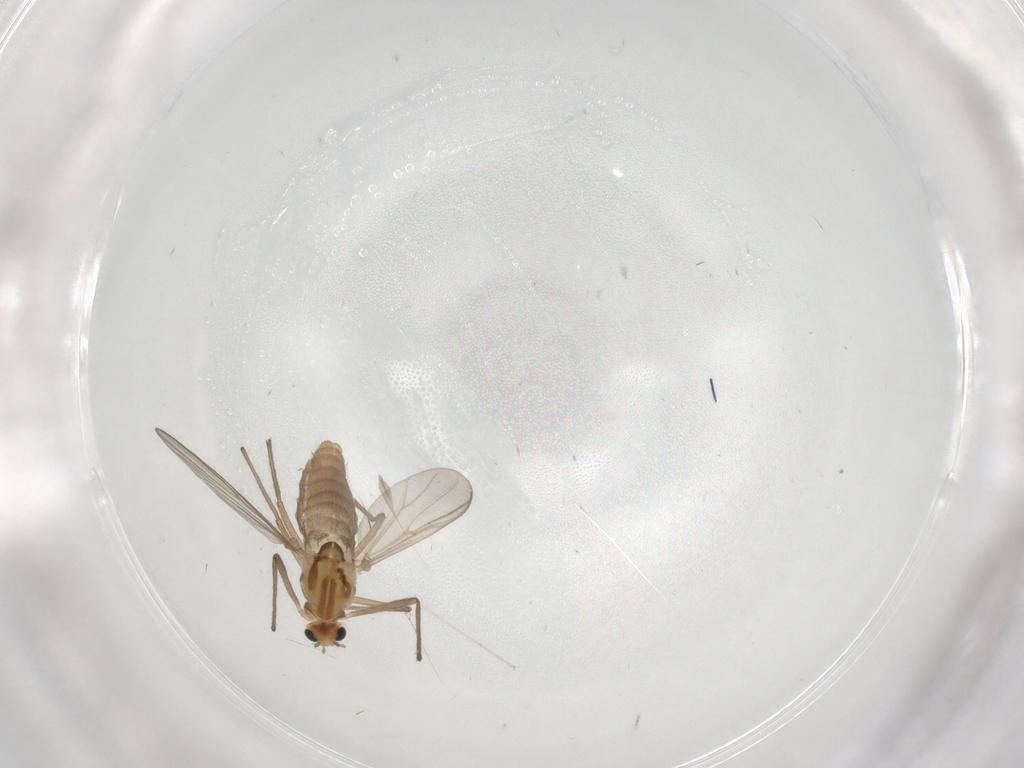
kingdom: Animalia
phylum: Arthropoda
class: Insecta
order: Diptera
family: Chironomidae
